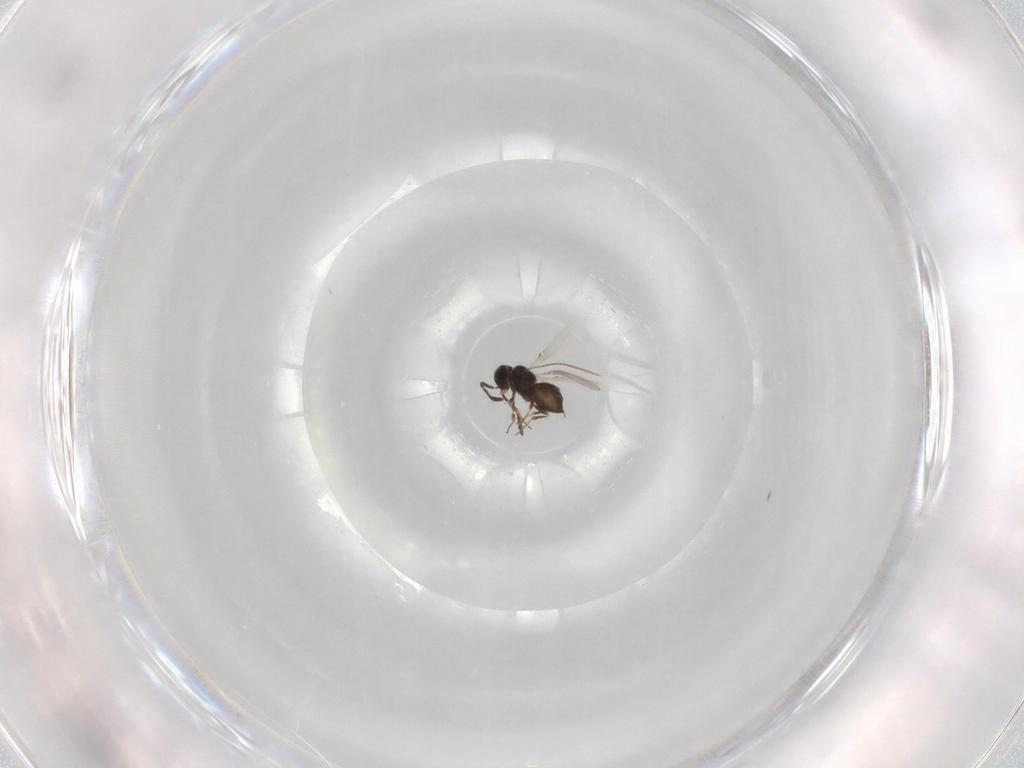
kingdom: Animalia
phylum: Arthropoda
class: Insecta
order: Hymenoptera
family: Scelionidae
